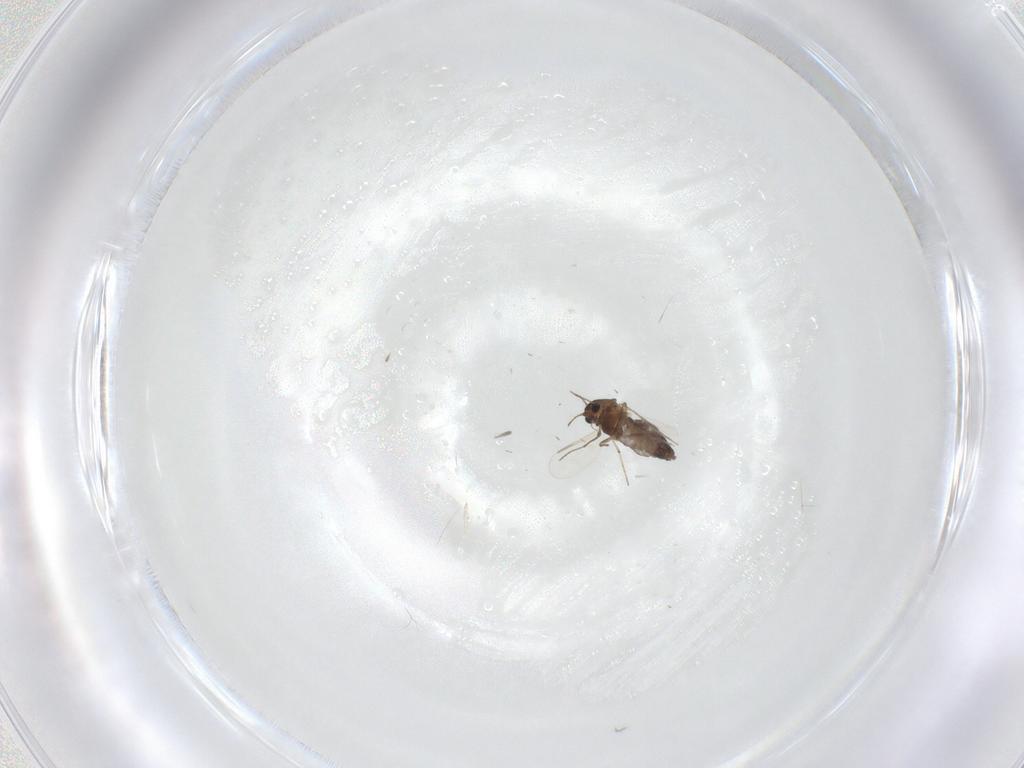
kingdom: Animalia
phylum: Arthropoda
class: Insecta
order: Diptera
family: Chironomidae
